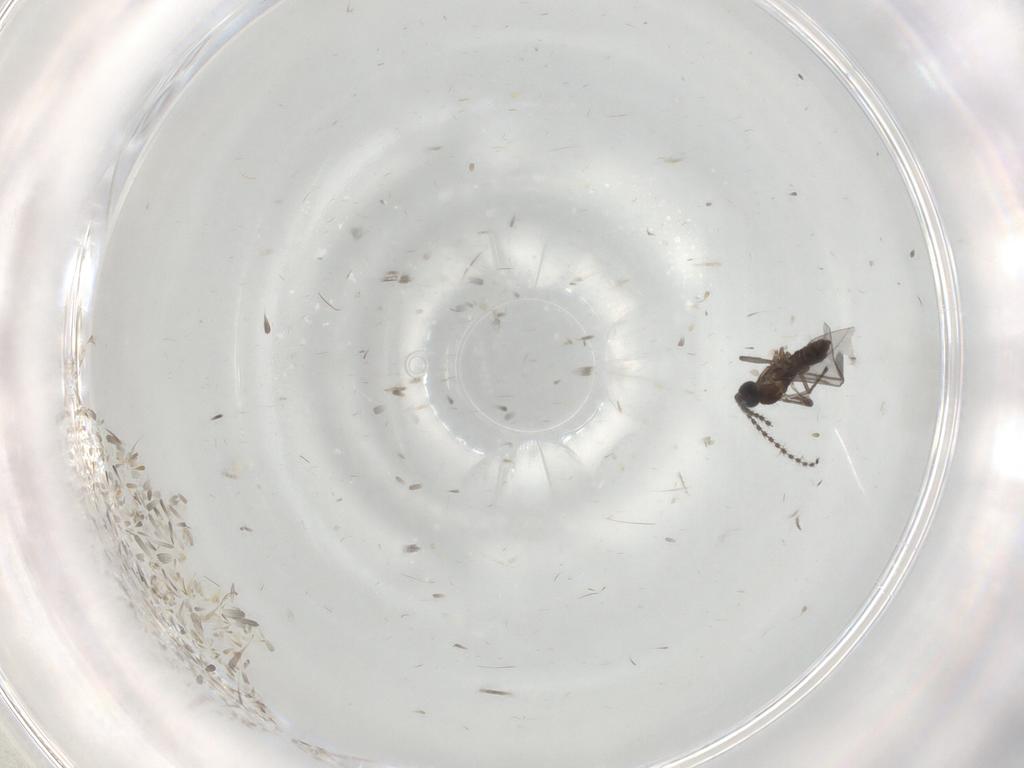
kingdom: Animalia
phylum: Arthropoda
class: Insecta
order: Diptera
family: Sciaridae
